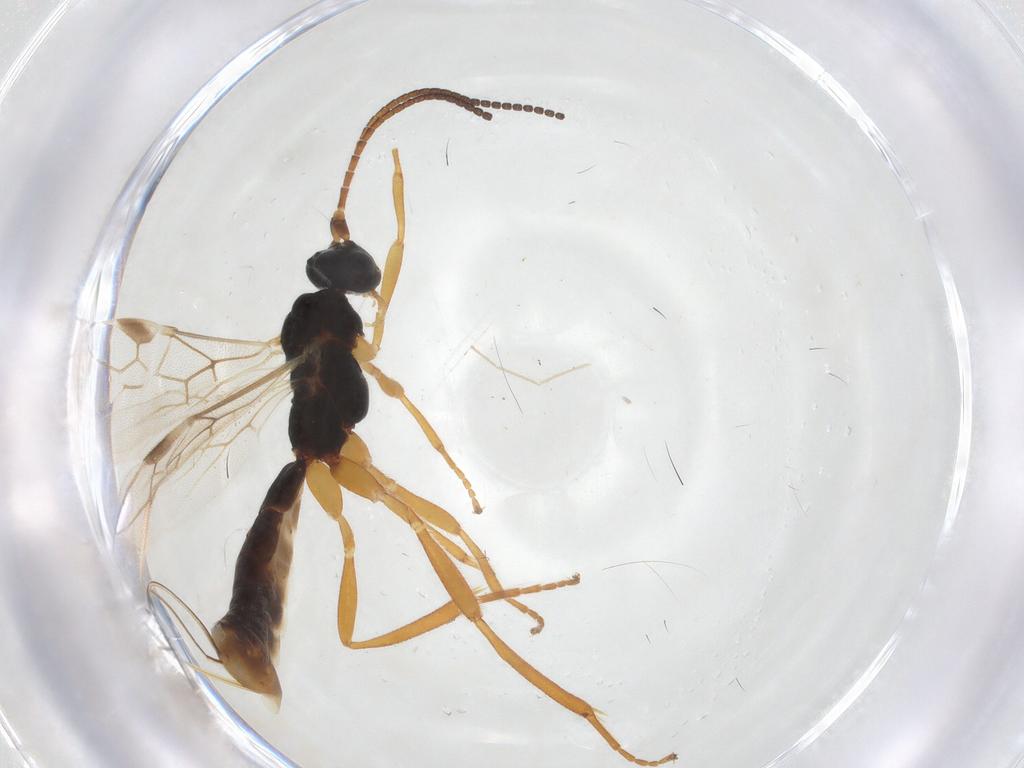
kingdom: Animalia
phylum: Arthropoda
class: Insecta
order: Hymenoptera
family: Braconidae
